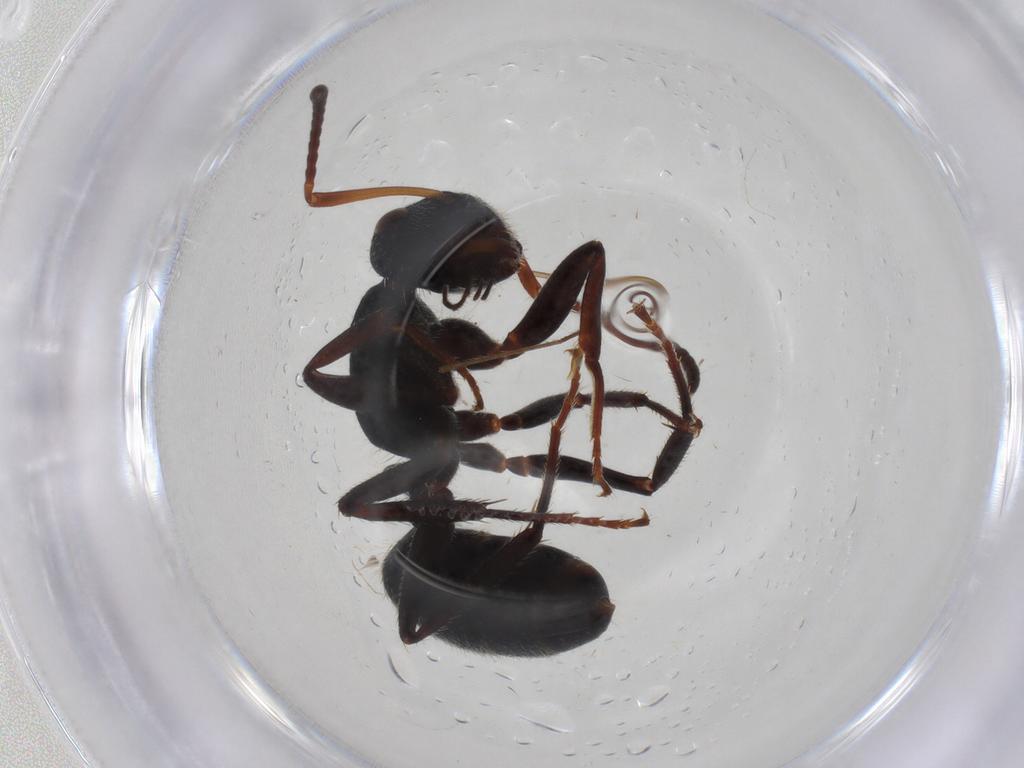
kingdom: Animalia
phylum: Arthropoda
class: Insecta
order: Hymenoptera
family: Formicidae
